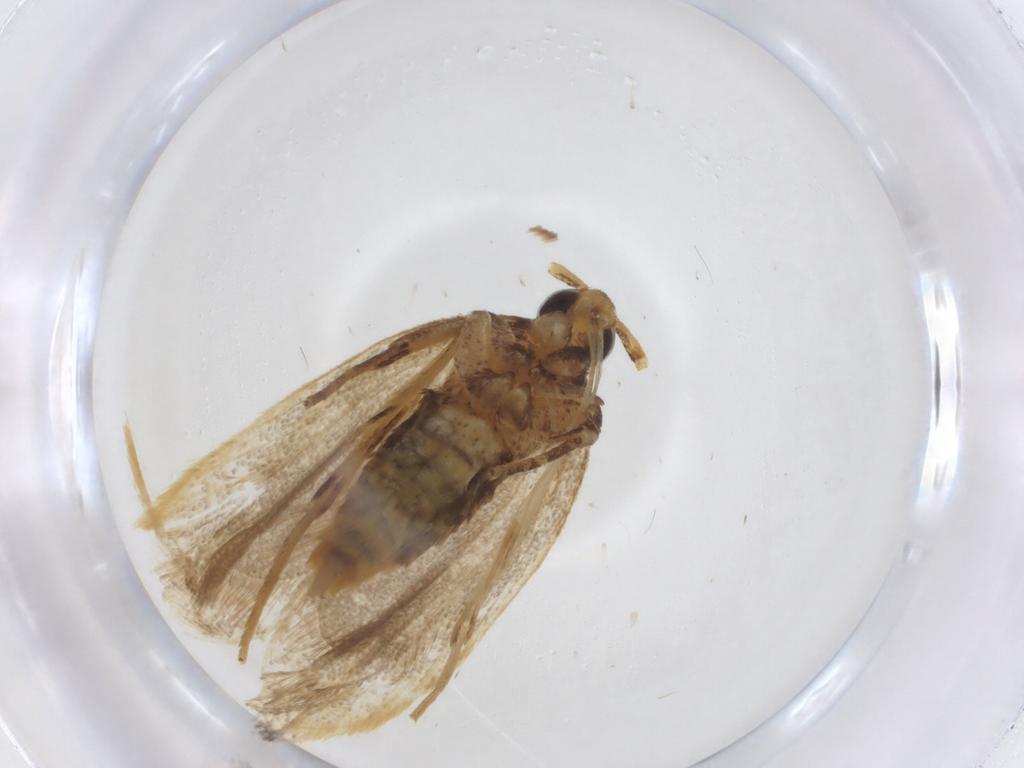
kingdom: Animalia
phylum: Arthropoda
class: Insecta
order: Lepidoptera
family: Lecithoceridae
